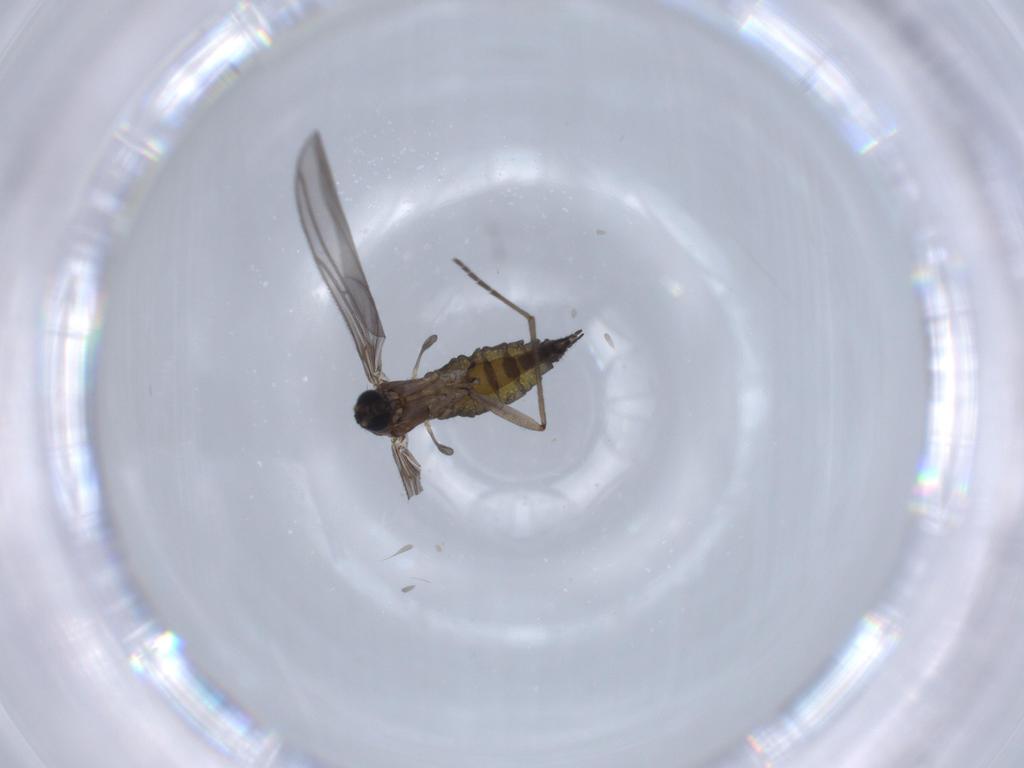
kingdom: Animalia
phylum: Arthropoda
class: Insecta
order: Diptera
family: Sciaridae
